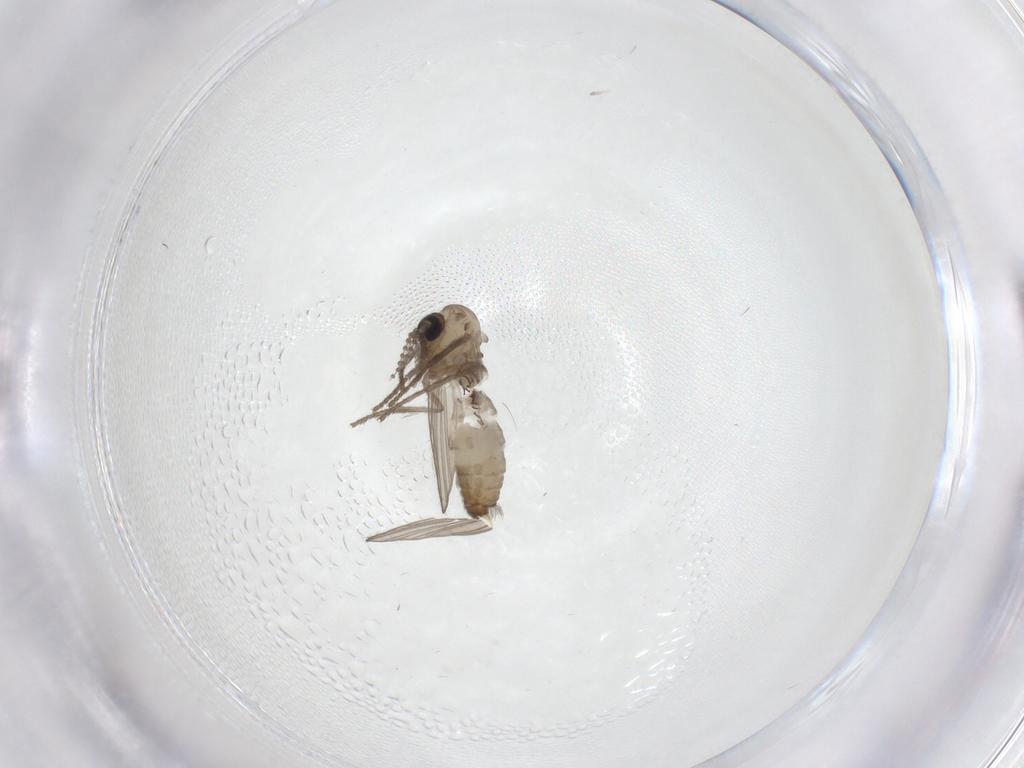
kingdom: Animalia
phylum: Arthropoda
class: Insecta
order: Diptera
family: Psychodidae
